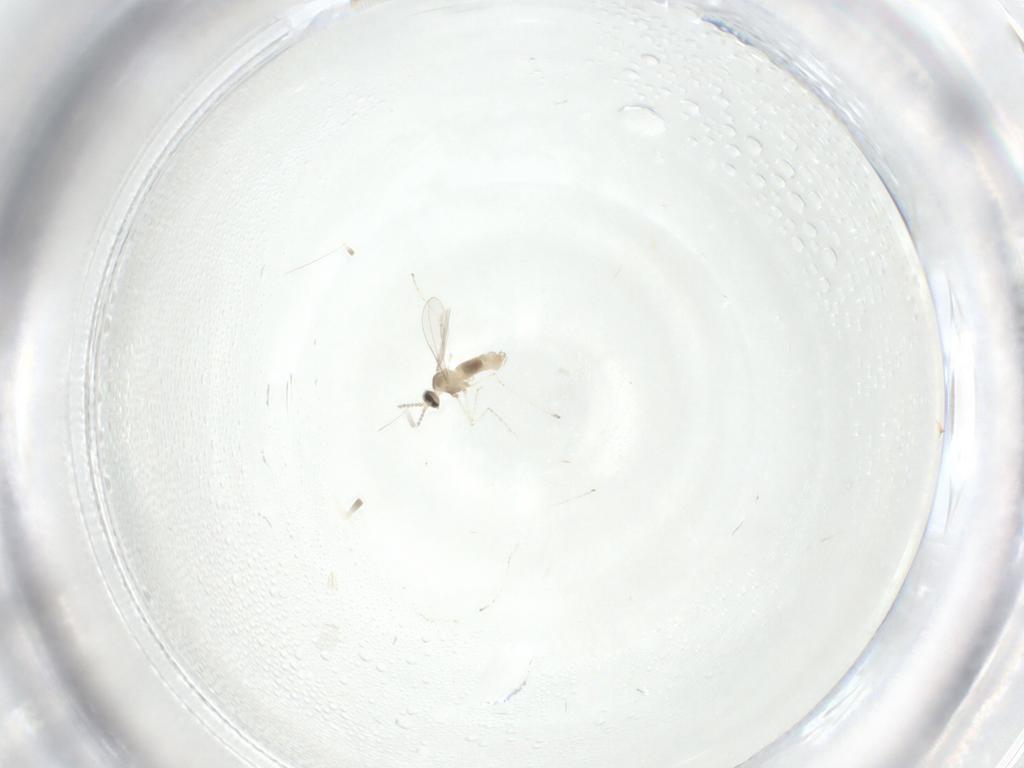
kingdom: Animalia
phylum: Arthropoda
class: Insecta
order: Diptera
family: Cecidomyiidae
